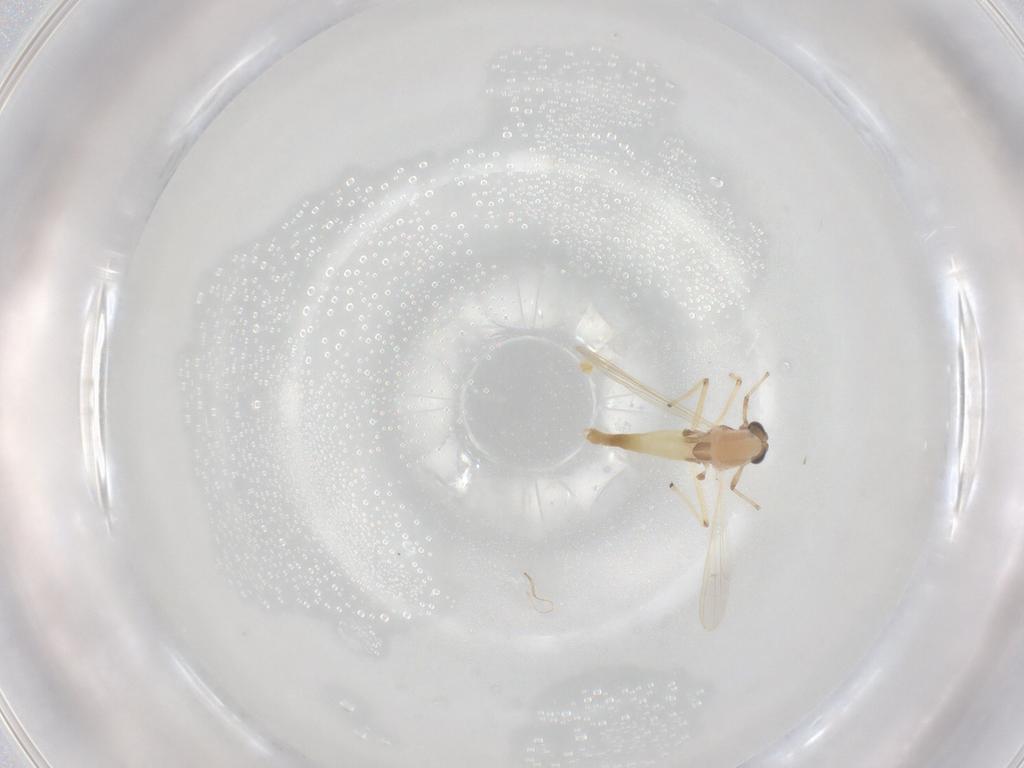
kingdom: Animalia
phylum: Arthropoda
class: Insecta
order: Diptera
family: Chironomidae
